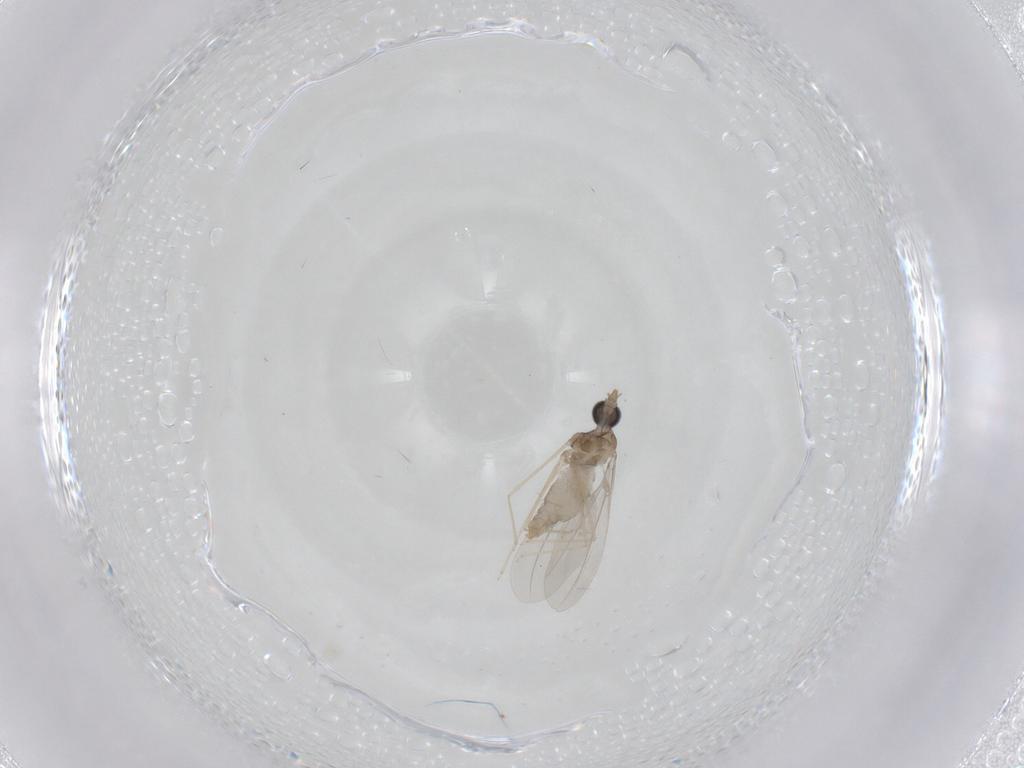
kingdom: Animalia
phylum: Arthropoda
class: Insecta
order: Diptera
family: Cecidomyiidae
